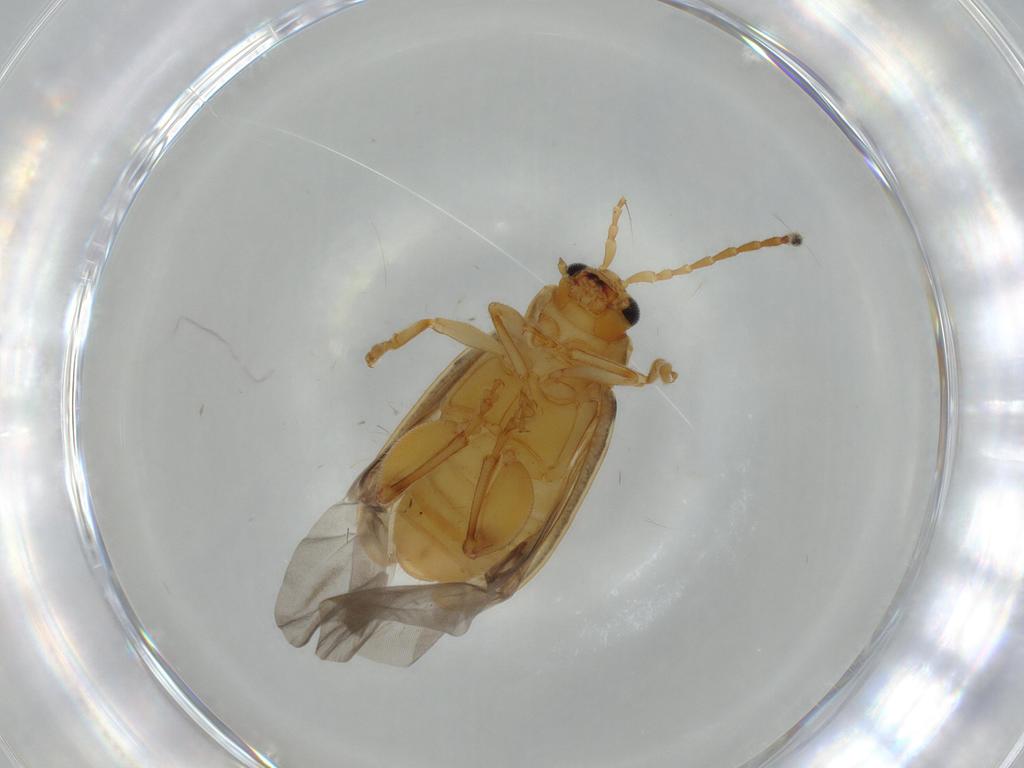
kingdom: Animalia
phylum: Arthropoda
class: Insecta
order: Coleoptera
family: Chrysomelidae
